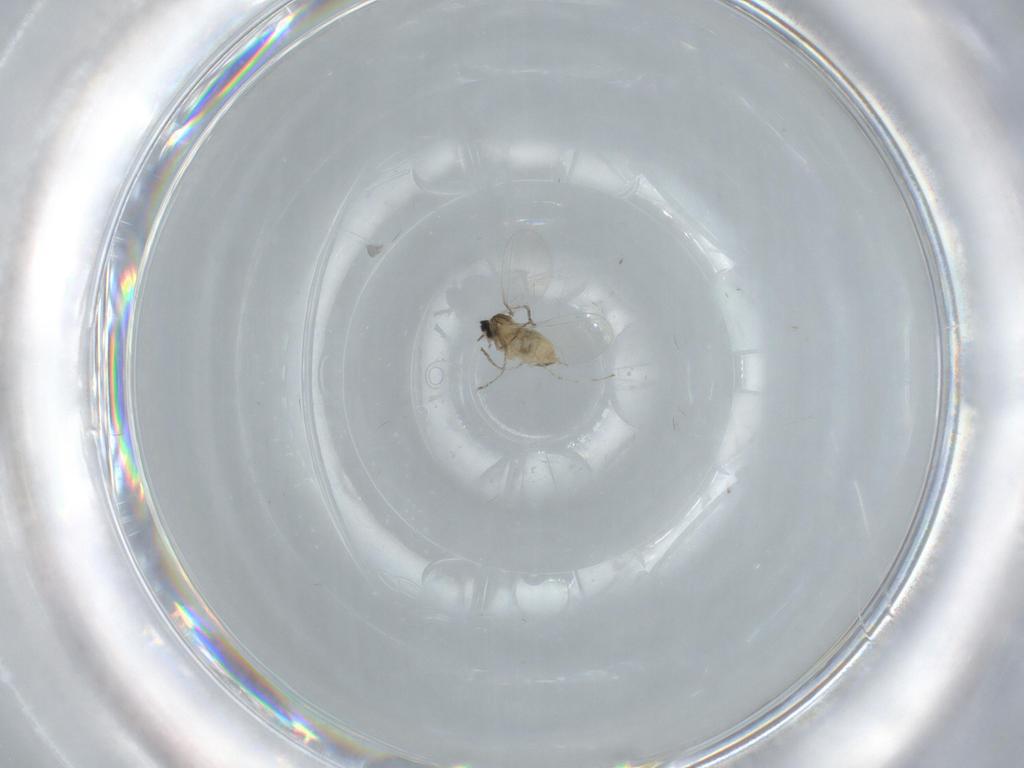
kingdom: Animalia
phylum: Arthropoda
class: Insecta
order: Diptera
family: Cecidomyiidae
